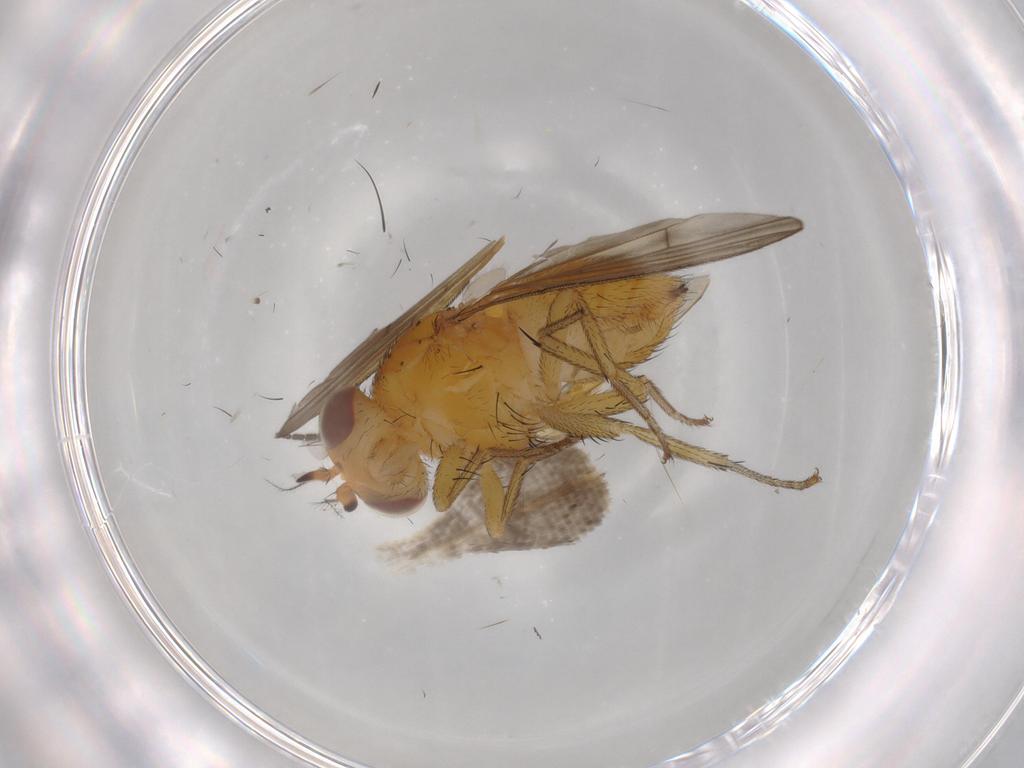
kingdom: Animalia
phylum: Arthropoda
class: Insecta
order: Diptera
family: Lauxaniidae
